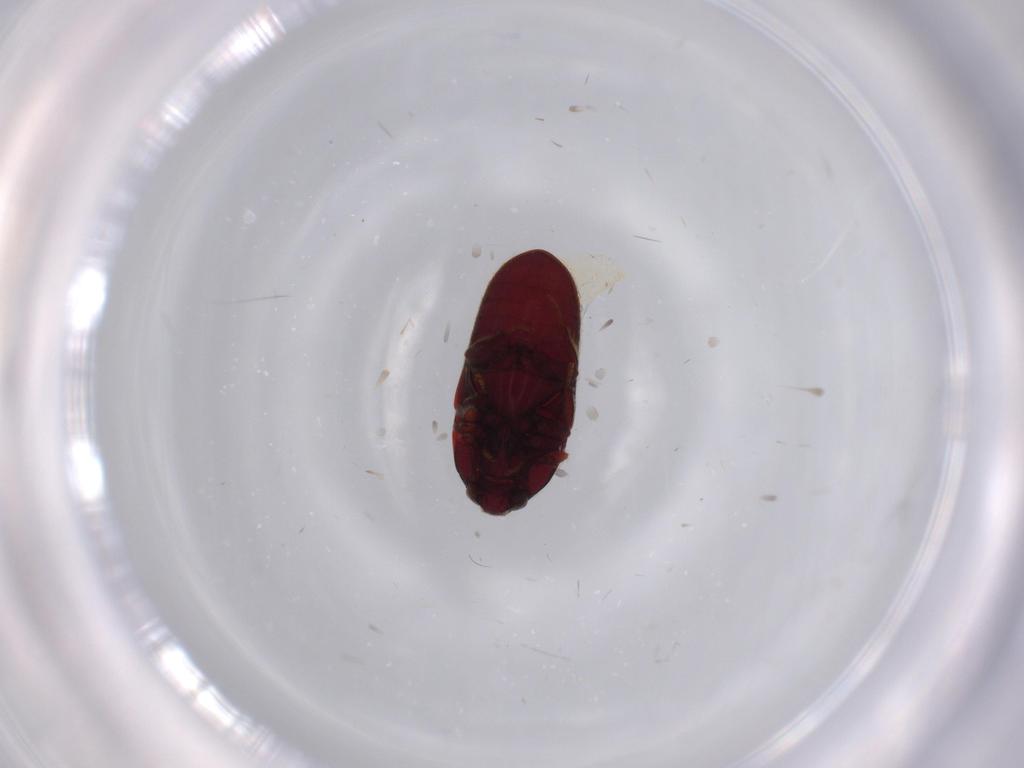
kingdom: Animalia
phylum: Arthropoda
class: Insecta
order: Coleoptera
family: Throscidae
